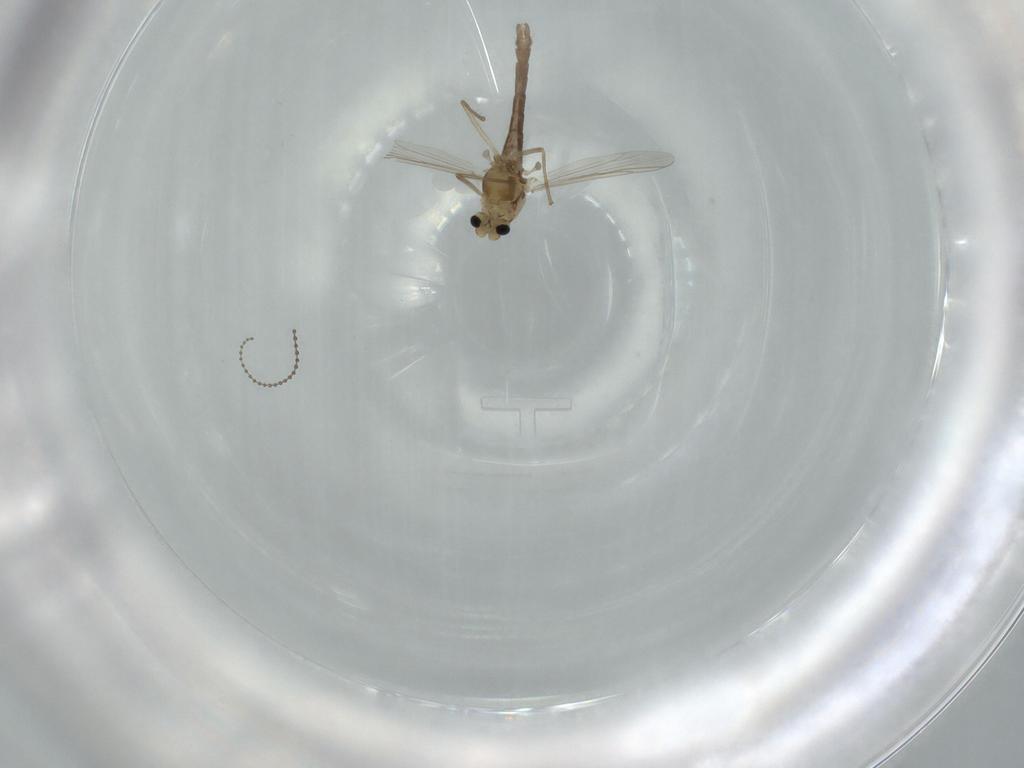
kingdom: Animalia
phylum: Arthropoda
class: Insecta
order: Diptera
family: Chironomidae
